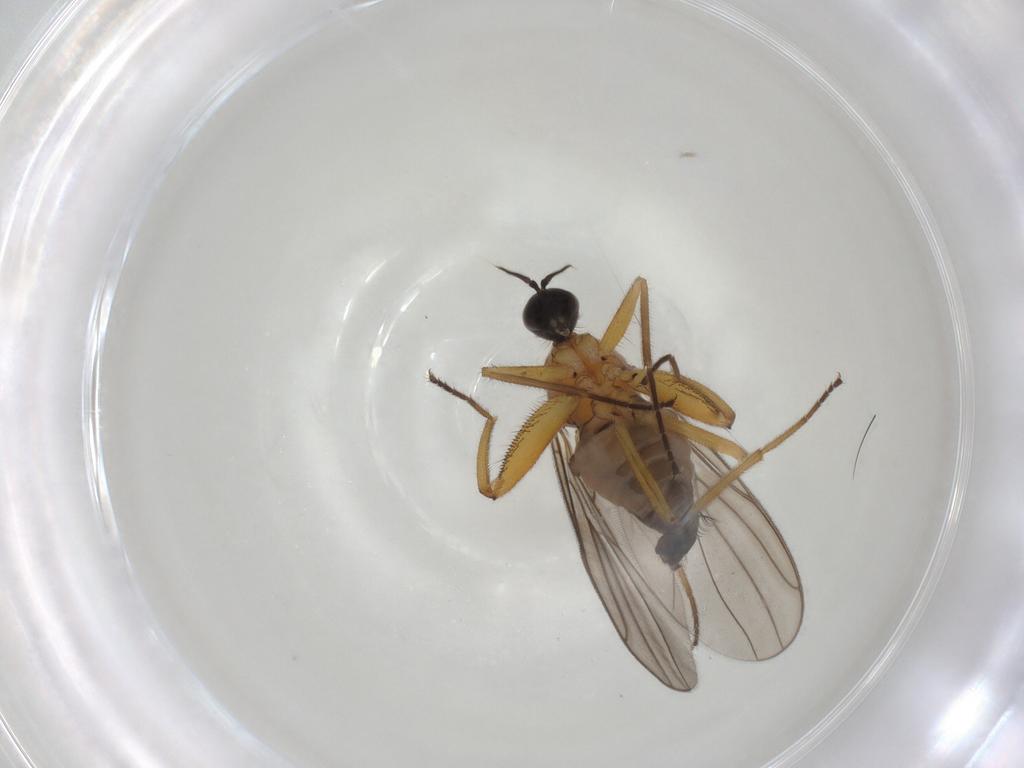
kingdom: Animalia
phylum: Arthropoda
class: Insecta
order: Diptera
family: Hybotidae
